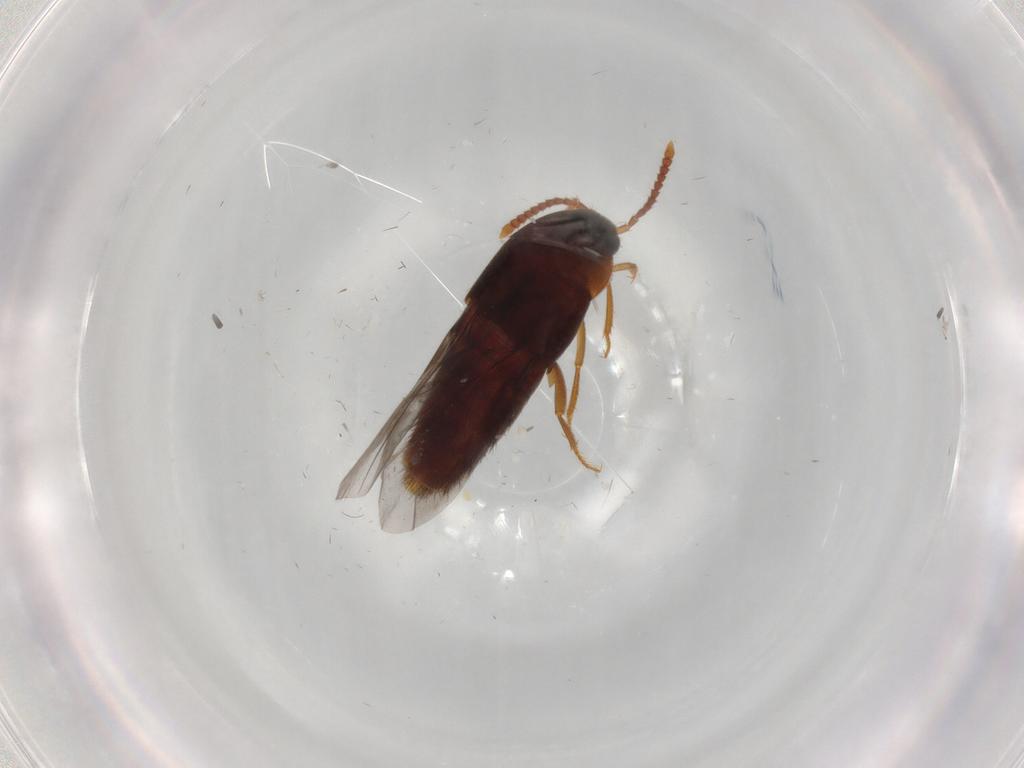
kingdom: Animalia
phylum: Arthropoda
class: Insecta
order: Coleoptera
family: Staphylinidae
